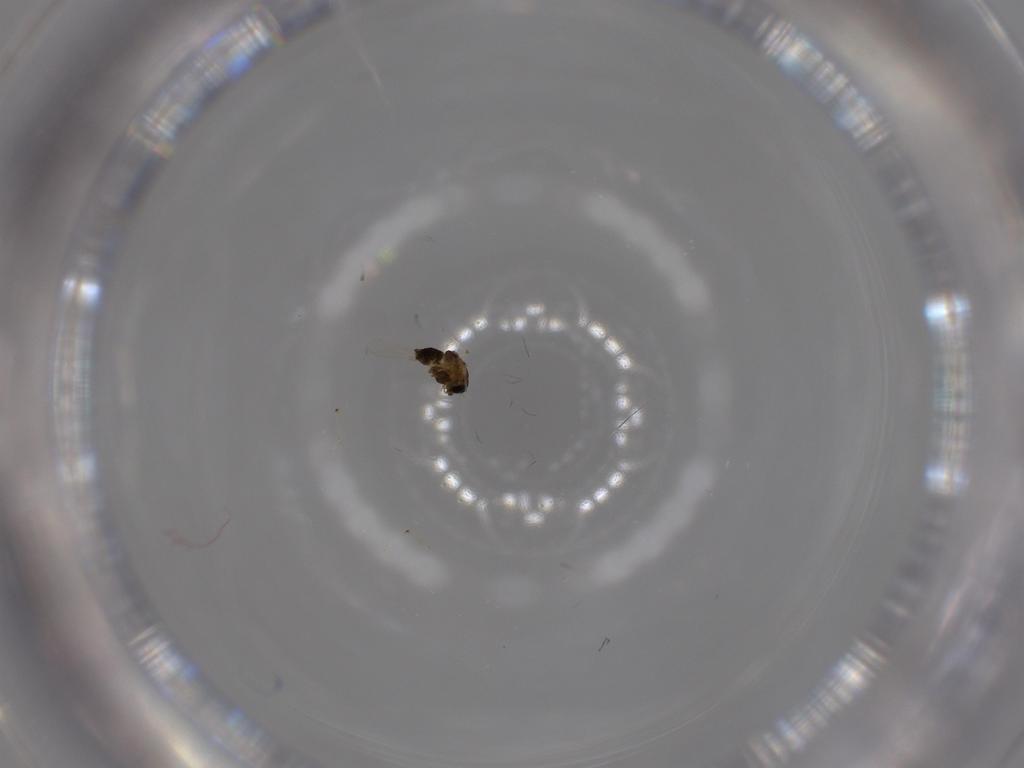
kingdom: Animalia
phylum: Arthropoda
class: Insecta
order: Diptera
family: Chironomidae
